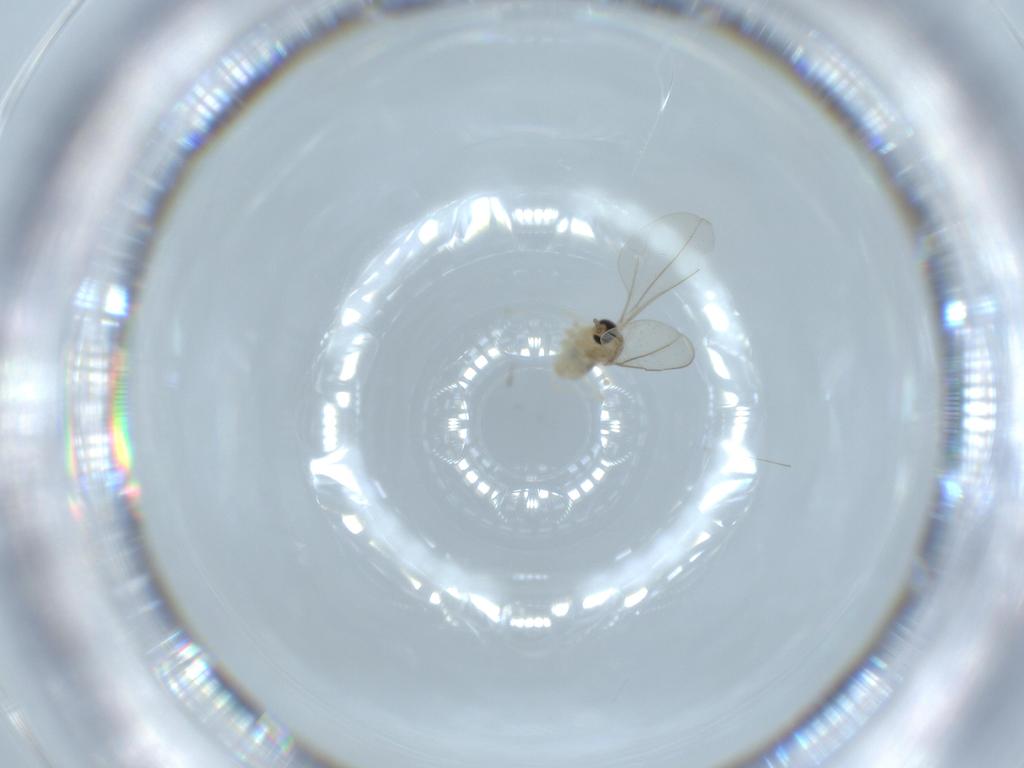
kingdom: Animalia
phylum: Arthropoda
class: Insecta
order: Diptera
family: Cecidomyiidae
